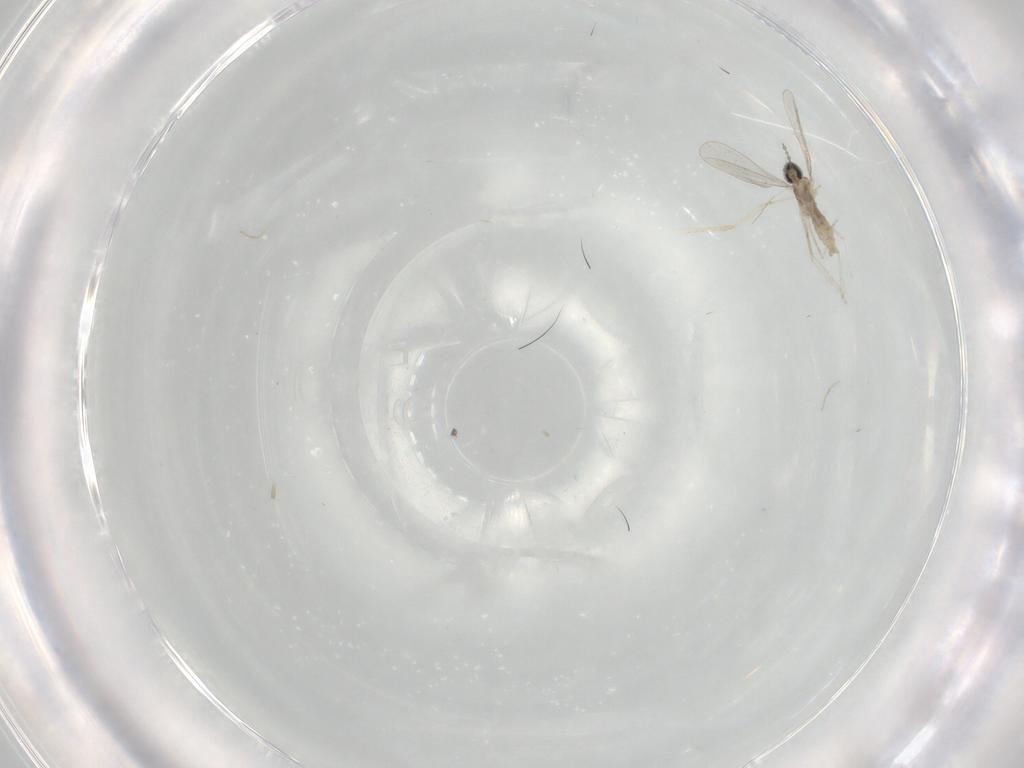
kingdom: Animalia
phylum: Arthropoda
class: Insecta
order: Diptera
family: Cecidomyiidae
